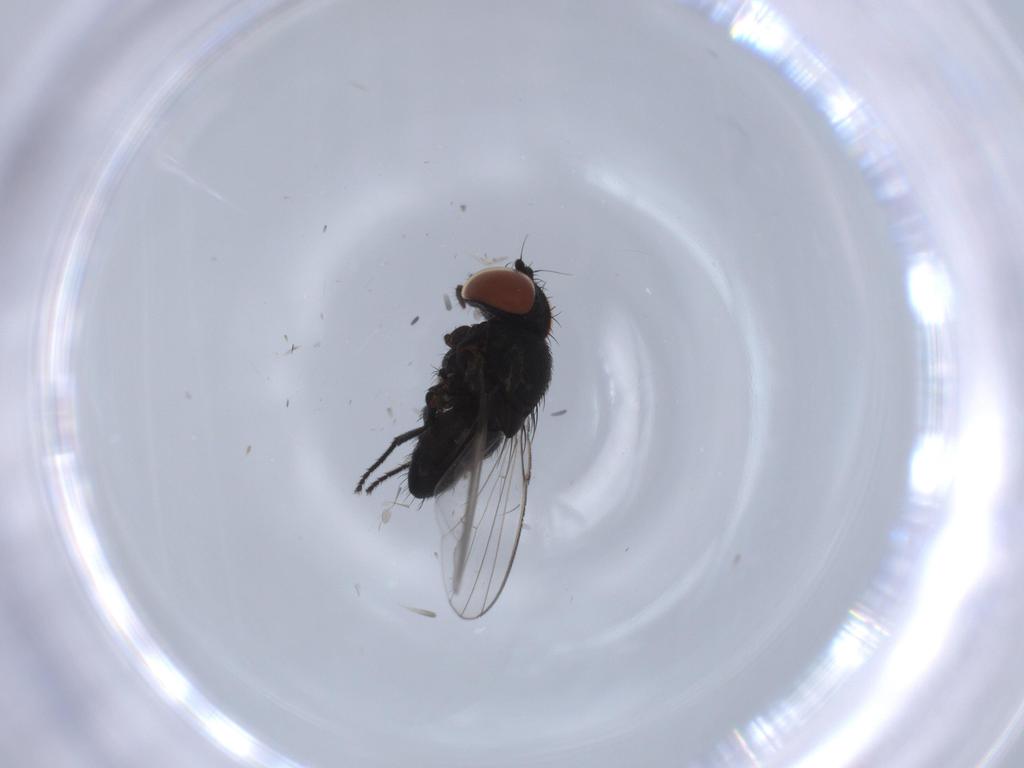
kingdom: Animalia
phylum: Arthropoda
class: Insecta
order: Diptera
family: Milichiidae
